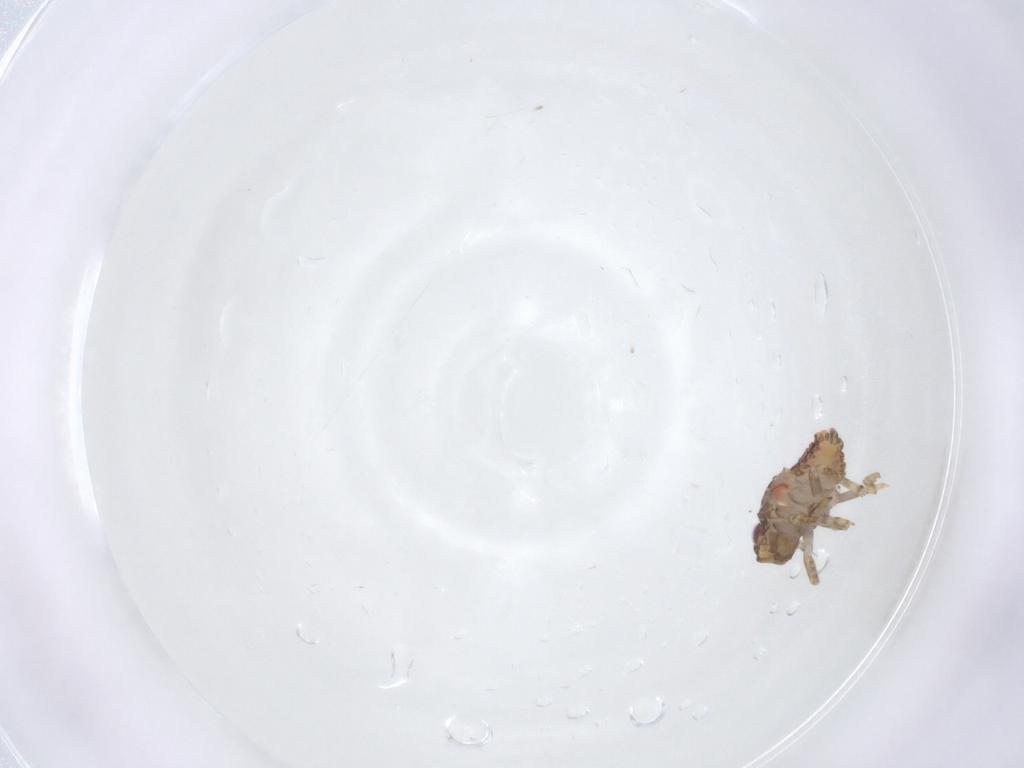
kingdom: Animalia
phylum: Arthropoda
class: Insecta
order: Hemiptera
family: Nogodinidae
